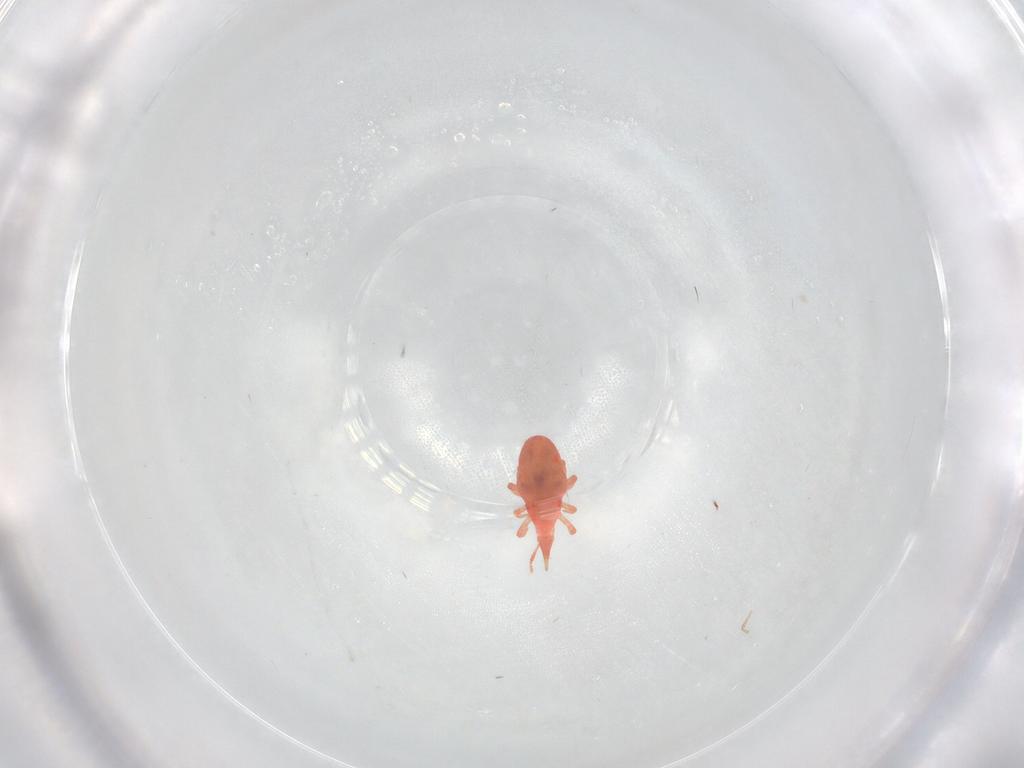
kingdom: Animalia
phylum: Arthropoda
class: Arachnida
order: Trombidiformes
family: Bdellidae
